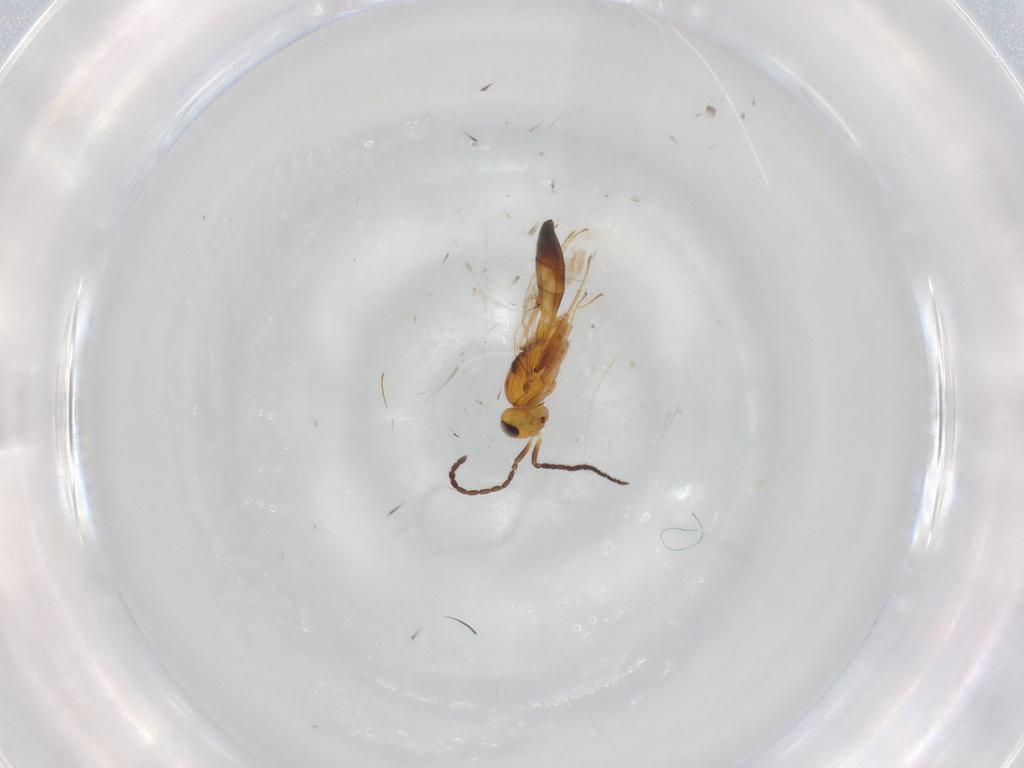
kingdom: Animalia
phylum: Arthropoda
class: Insecta
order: Hymenoptera
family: Scelionidae
